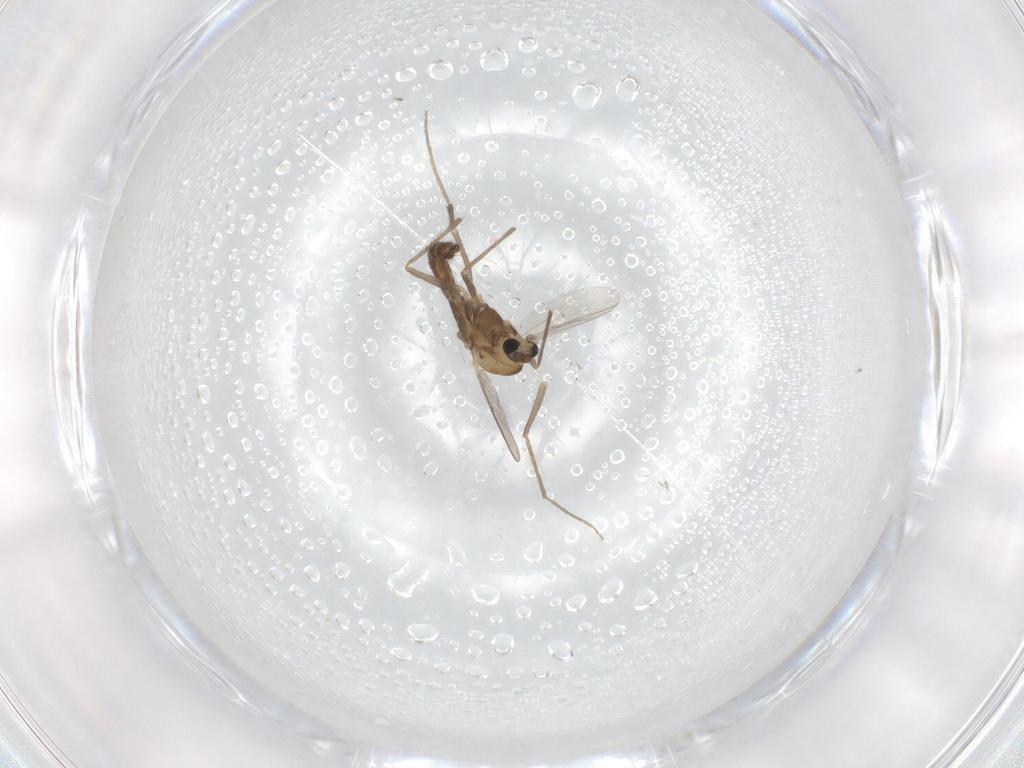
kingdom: Animalia
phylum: Arthropoda
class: Insecta
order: Diptera
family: Chironomidae
